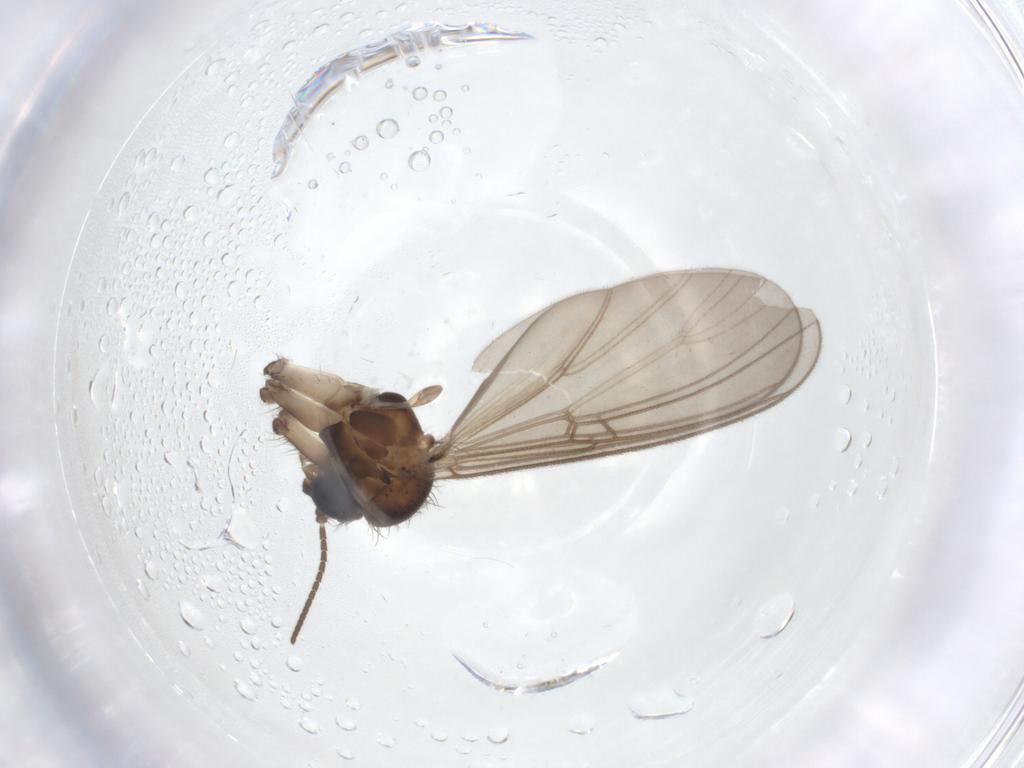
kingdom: Animalia
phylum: Arthropoda
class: Insecta
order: Diptera
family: Mycetophilidae
